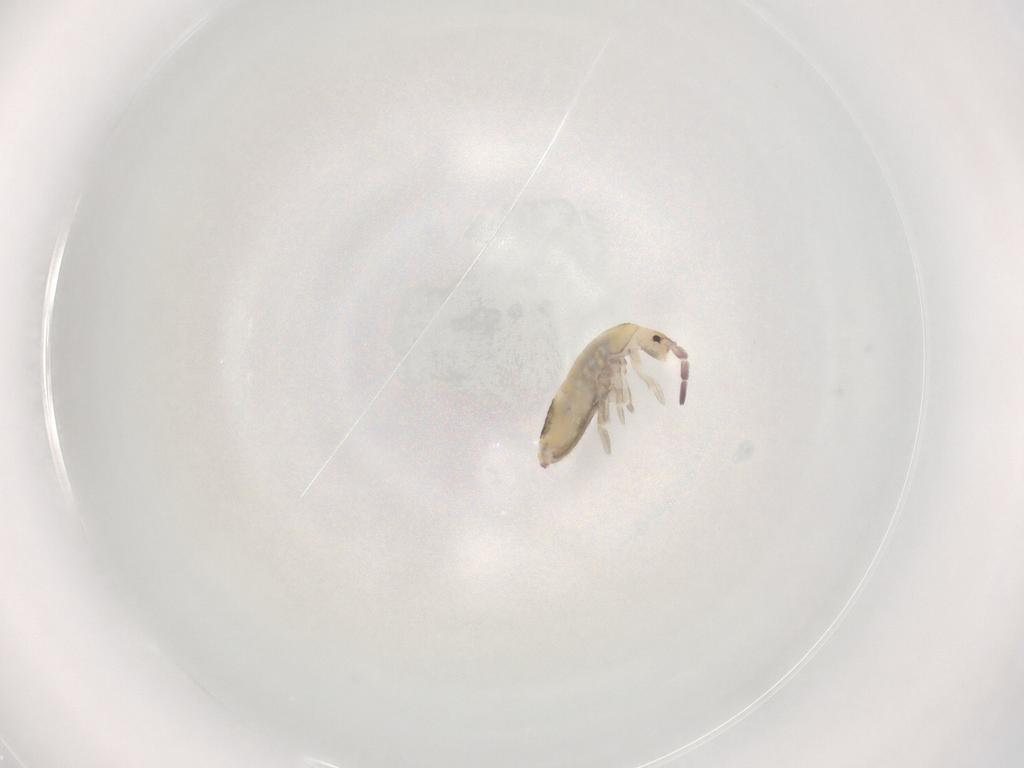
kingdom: Animalia
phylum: Arthropoda
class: Collembola
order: Entomobryomorpha
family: Entomobryidae
